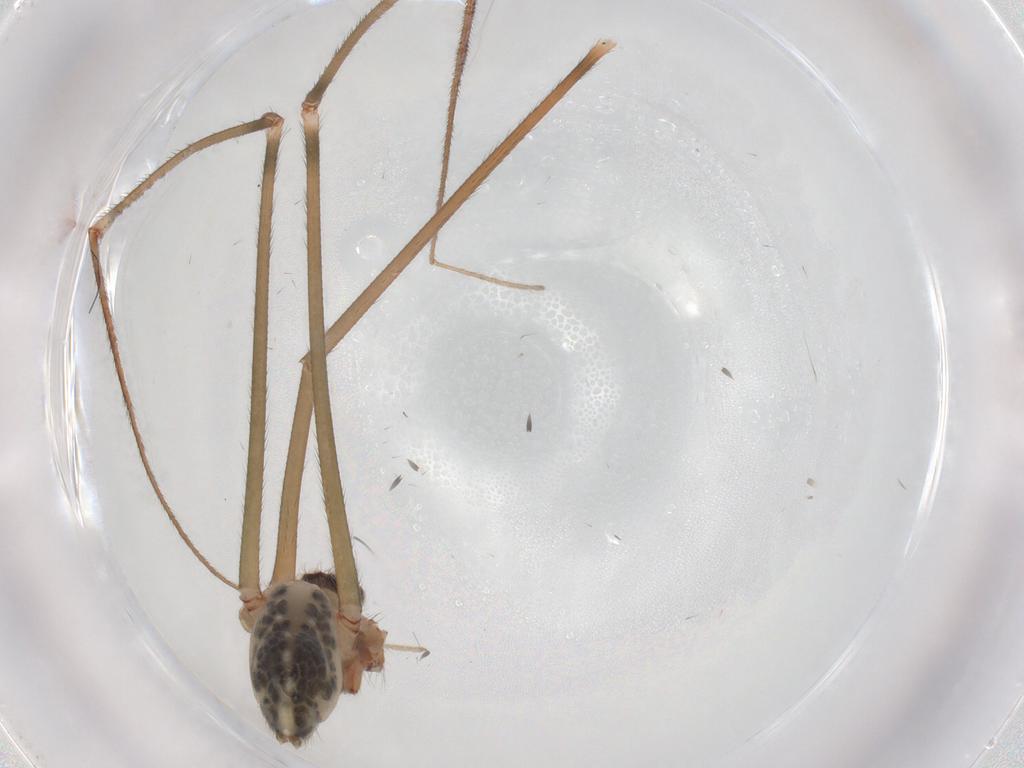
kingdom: Animalia
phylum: Arthropoda
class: Arachnida
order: Araneae
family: Pholcidae
